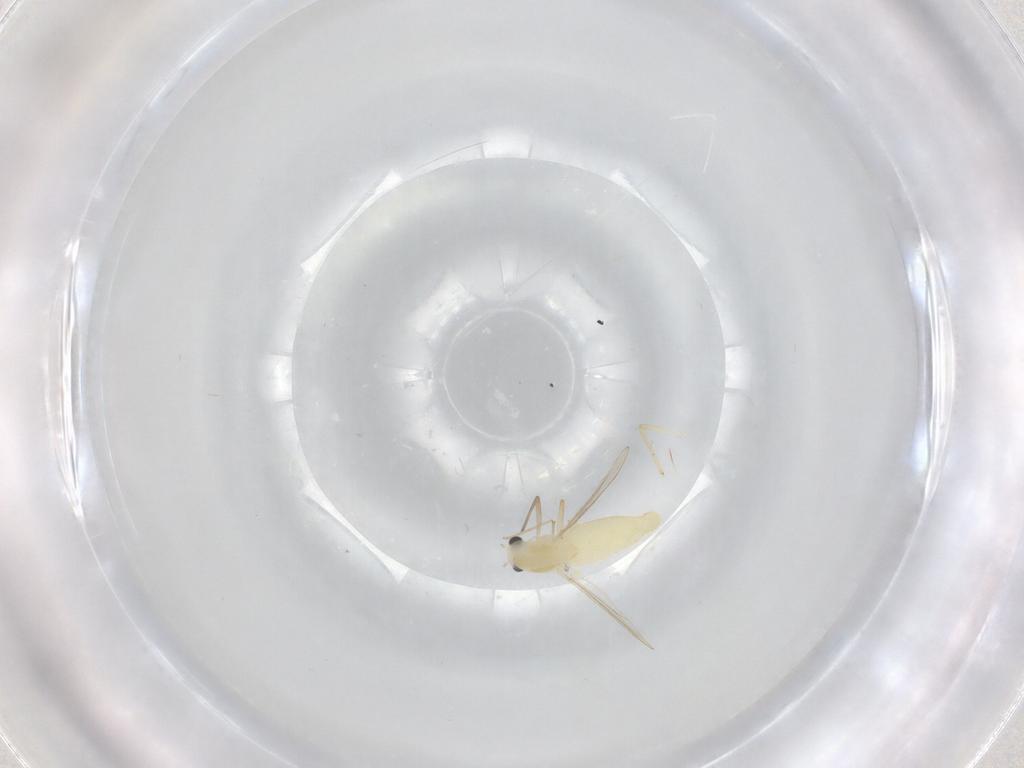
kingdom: Animalia
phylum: Arthropoda
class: Insecta
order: Diptera
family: Chironomidae
